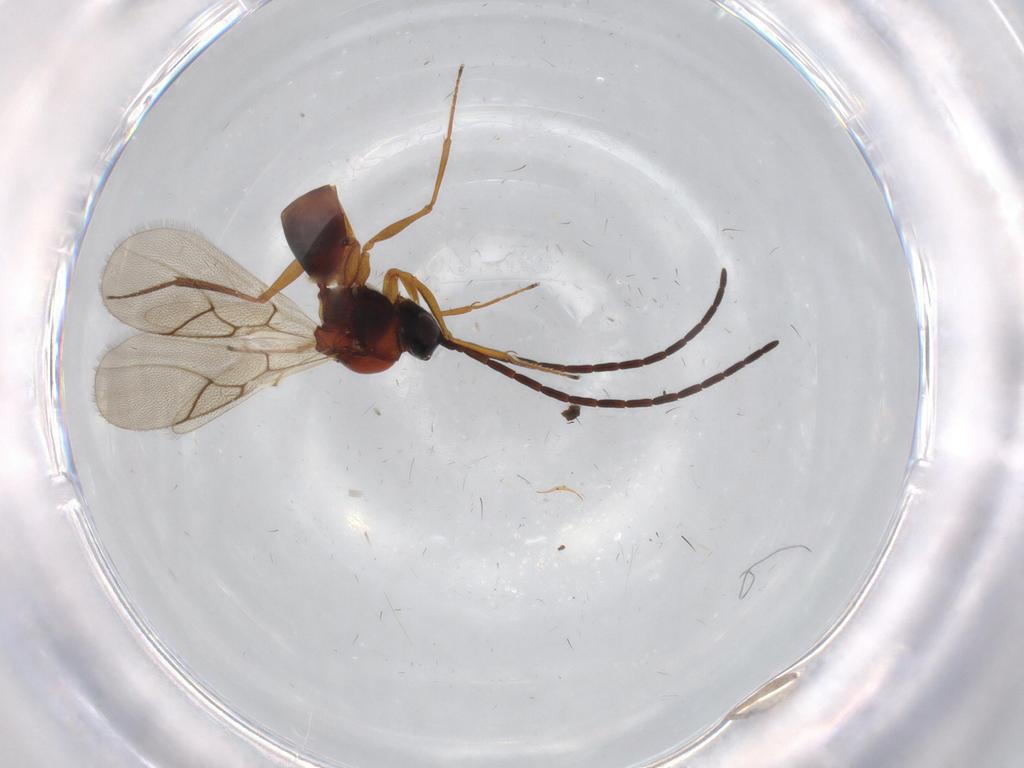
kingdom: Animalia
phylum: Arthropoda
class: Insecta
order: Hymenoptera
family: Figitidae
